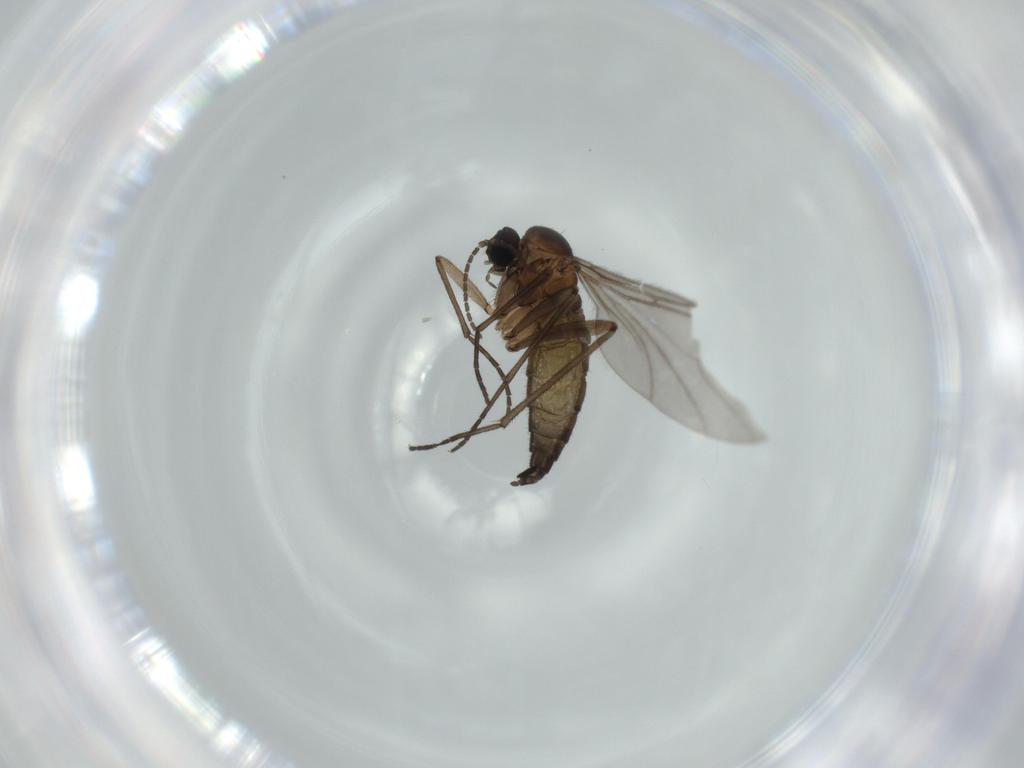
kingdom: Animalia
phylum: Arthropoda
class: Insecta
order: Diptera
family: Sciaridae
